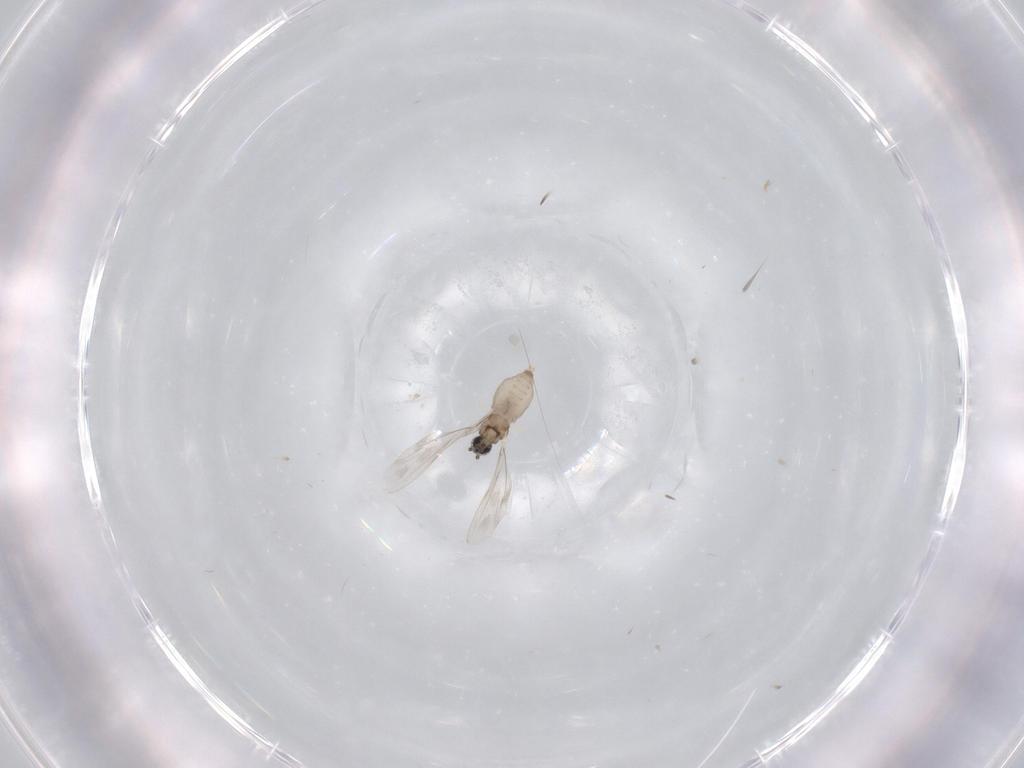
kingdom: Animalia
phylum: Arthropoda
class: Insecta
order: Diptera
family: Cecidomyiidae
